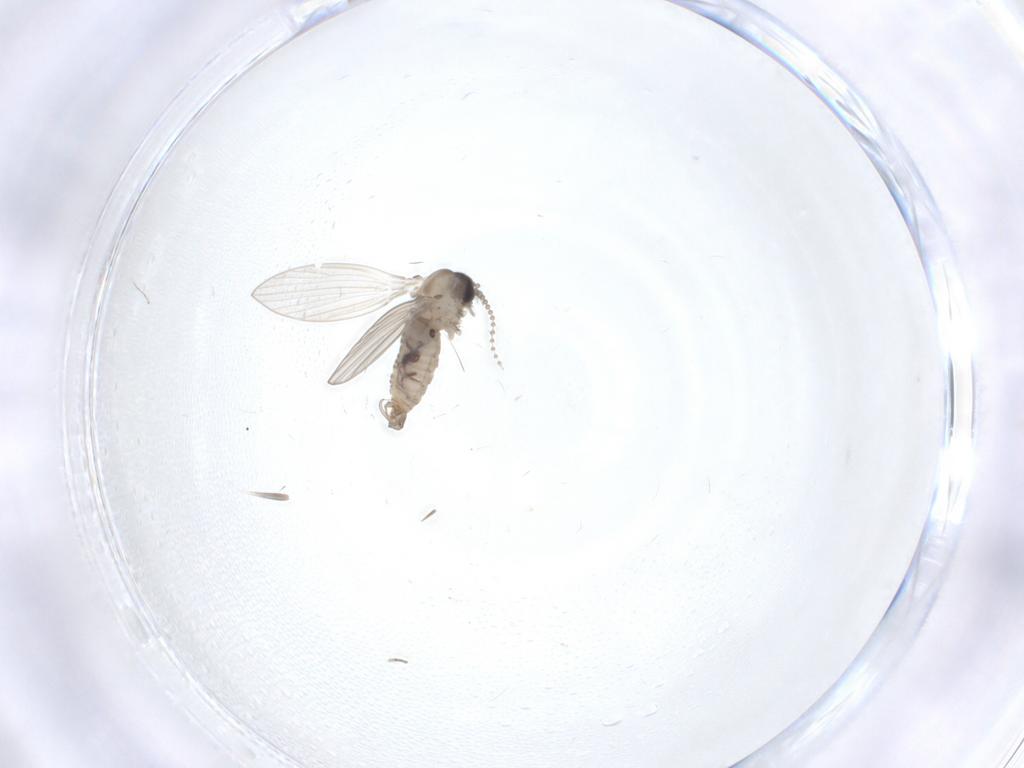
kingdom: Animalia
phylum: Arthropoda
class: Insecta
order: Diptera
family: Psychodidae
